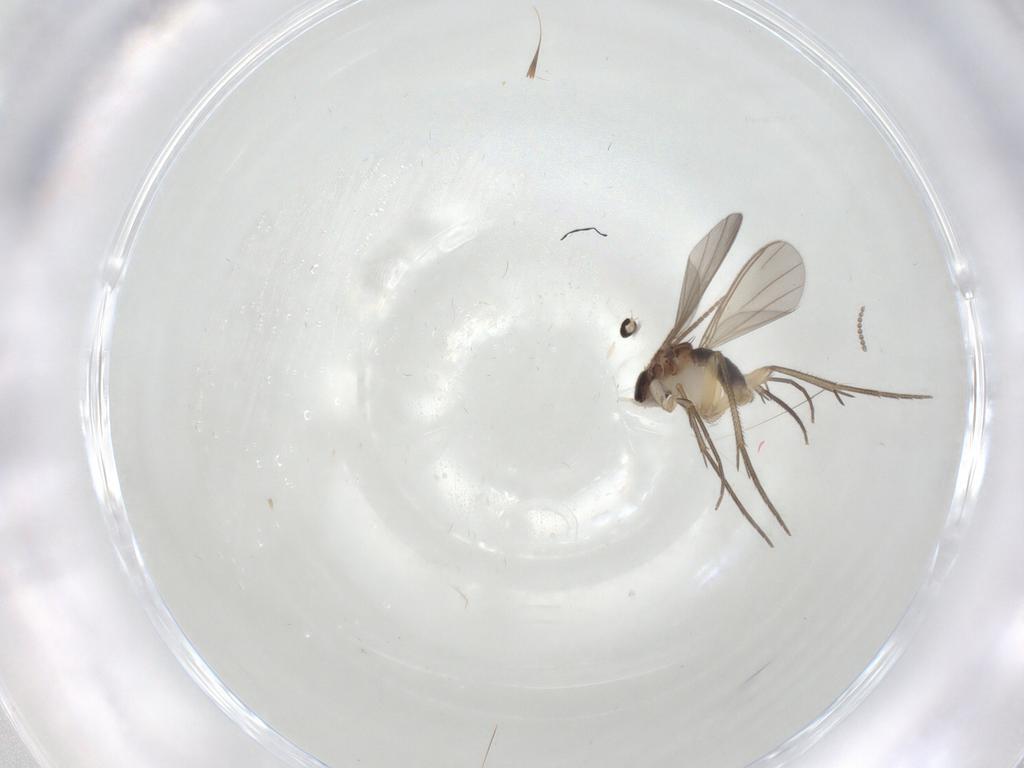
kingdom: Animalia
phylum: Arthropoda
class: Insecta
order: Diptera
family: Mycetophilidae
